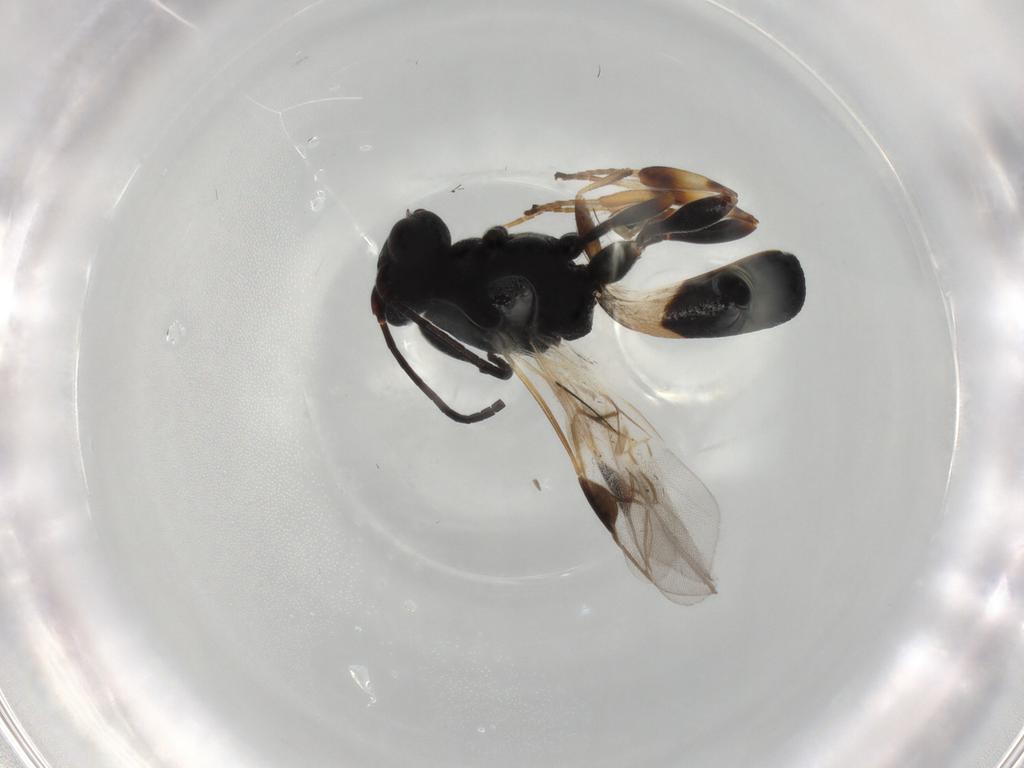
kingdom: Animalia
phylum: Arthropoda
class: Insecta
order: Hymenoptera
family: Braconidae
